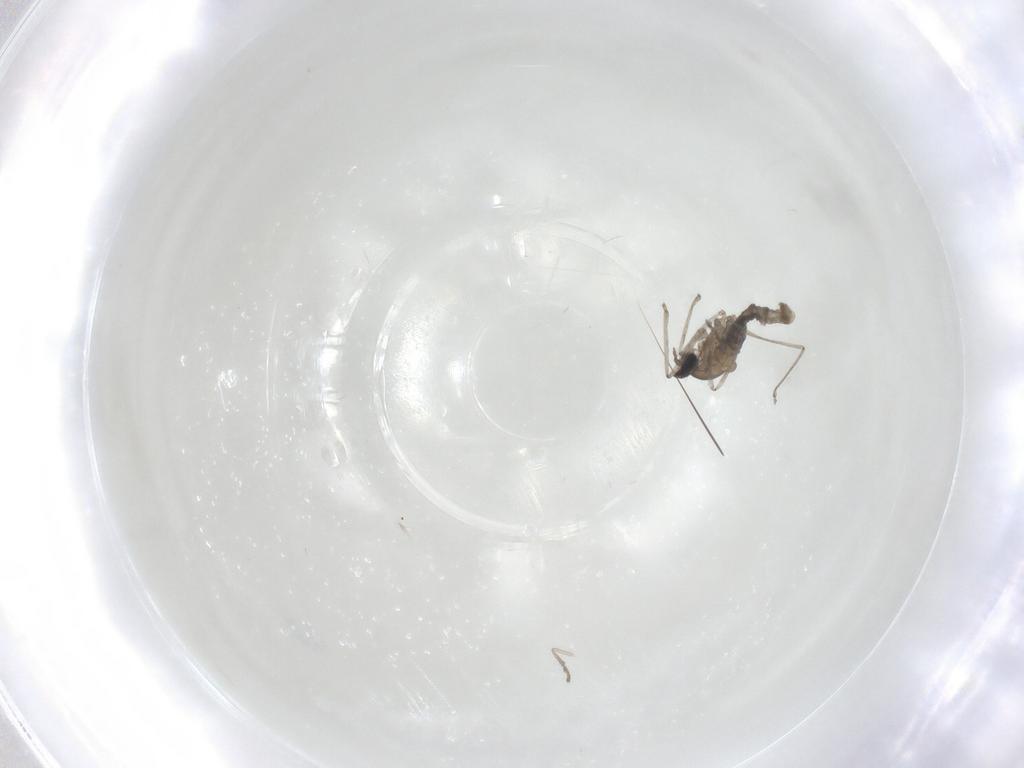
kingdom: Animalia
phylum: Arthropoda
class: Insecta
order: Diptera
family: Cecidomyiidae
